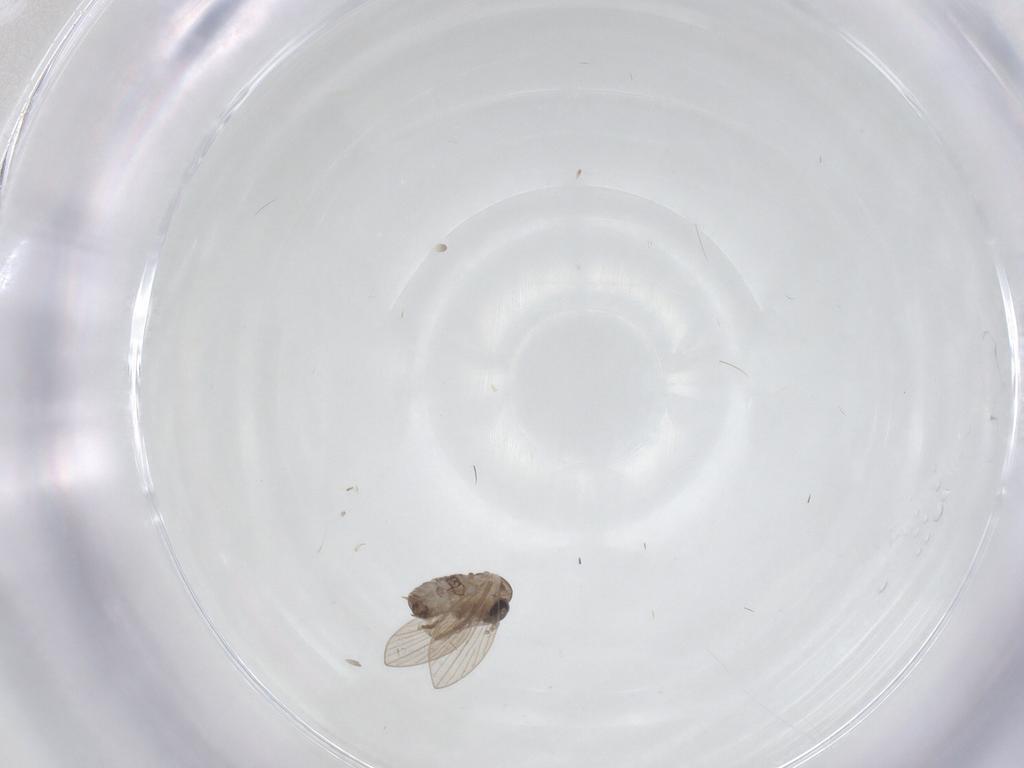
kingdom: Animalia
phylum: Arthropoda
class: Insecta
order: Diptera
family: Psychodidae
